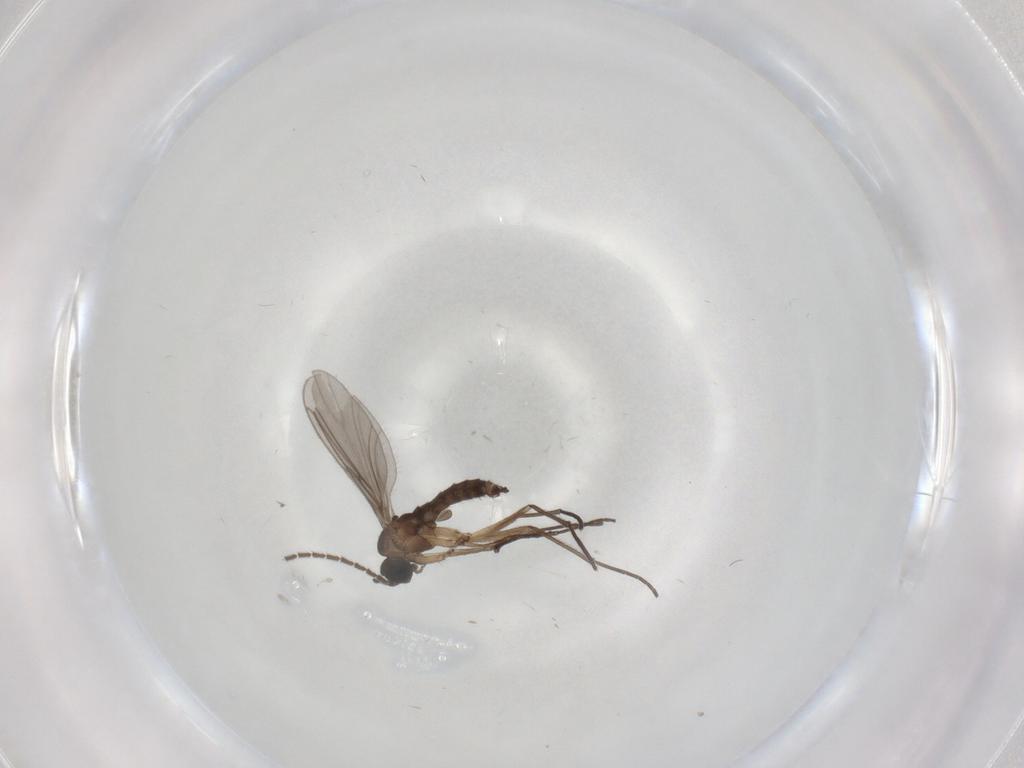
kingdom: Animalia
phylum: Arthropoda
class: Insecta
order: Diptera
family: Sciaridae
